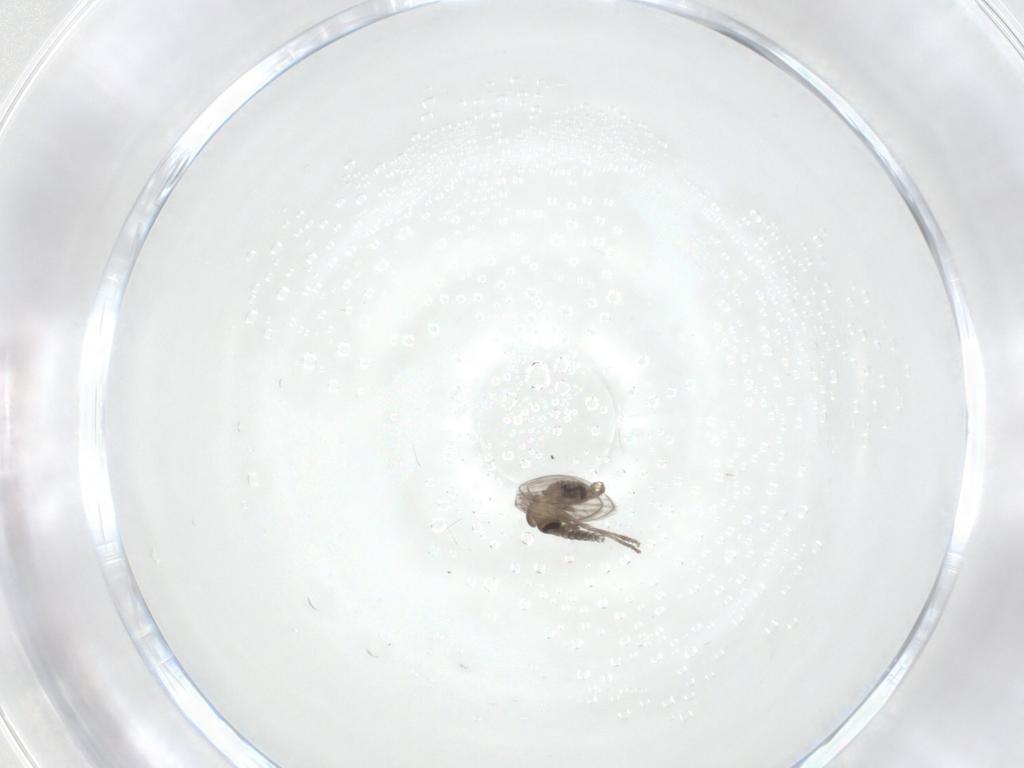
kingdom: Animalia
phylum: Arthropoda
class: Insecta
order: Diptera
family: Psychodidae
